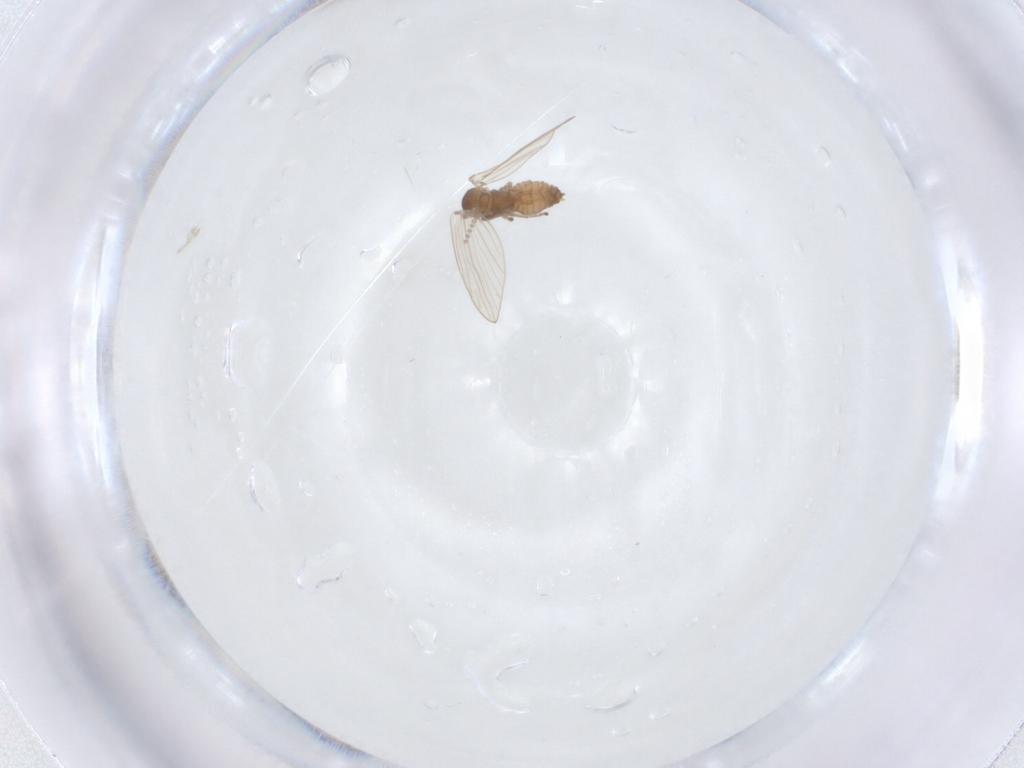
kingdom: Animalia
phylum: Arthropoda
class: Insecta
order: Diptera
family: Psychodidae
